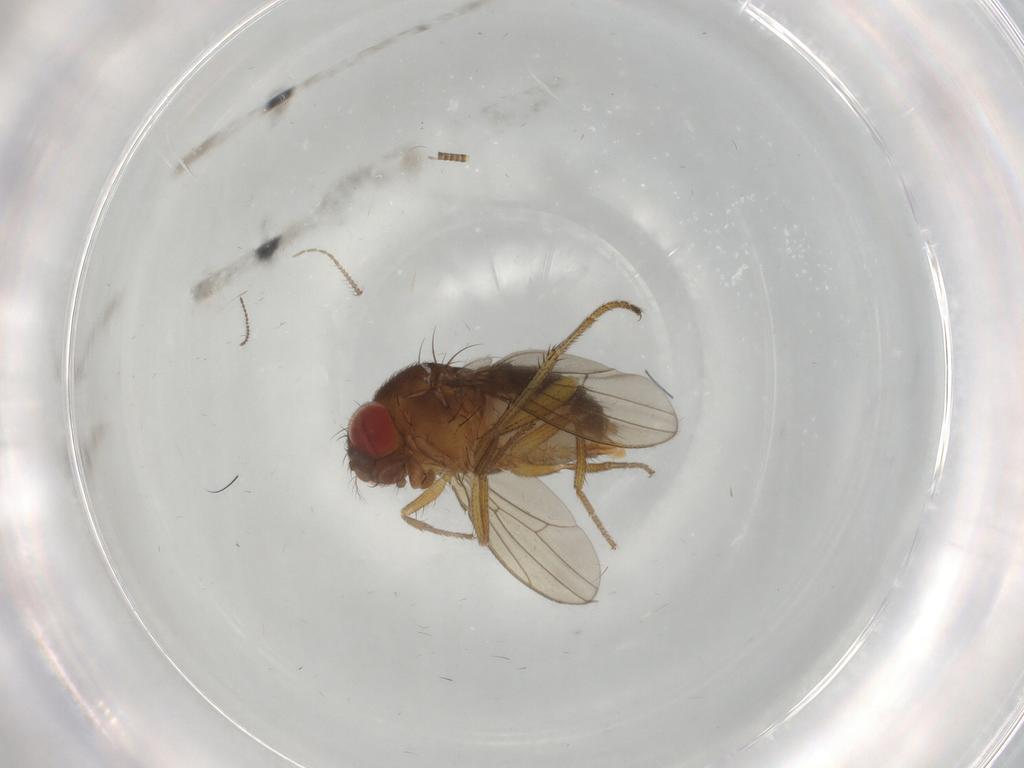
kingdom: Animalia
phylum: Arthropoda
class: Insecta
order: Diptera
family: Drosophilidae
